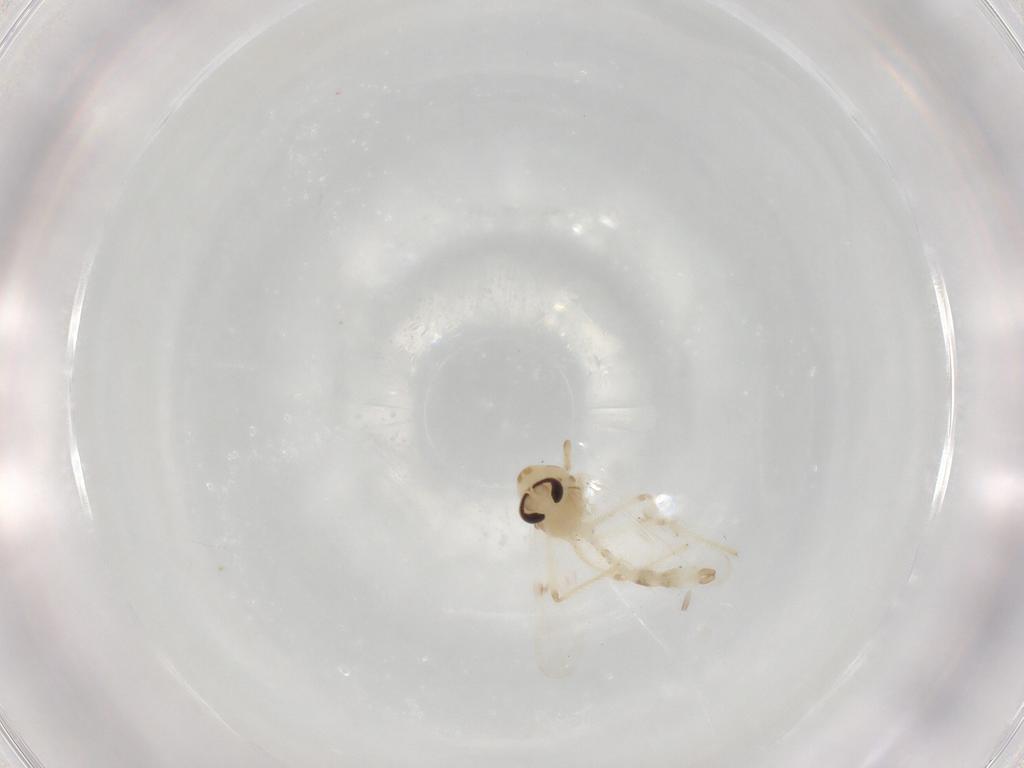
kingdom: Animalia
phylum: Arthropoda
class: Insecta
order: Diptera
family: Chironomidae
